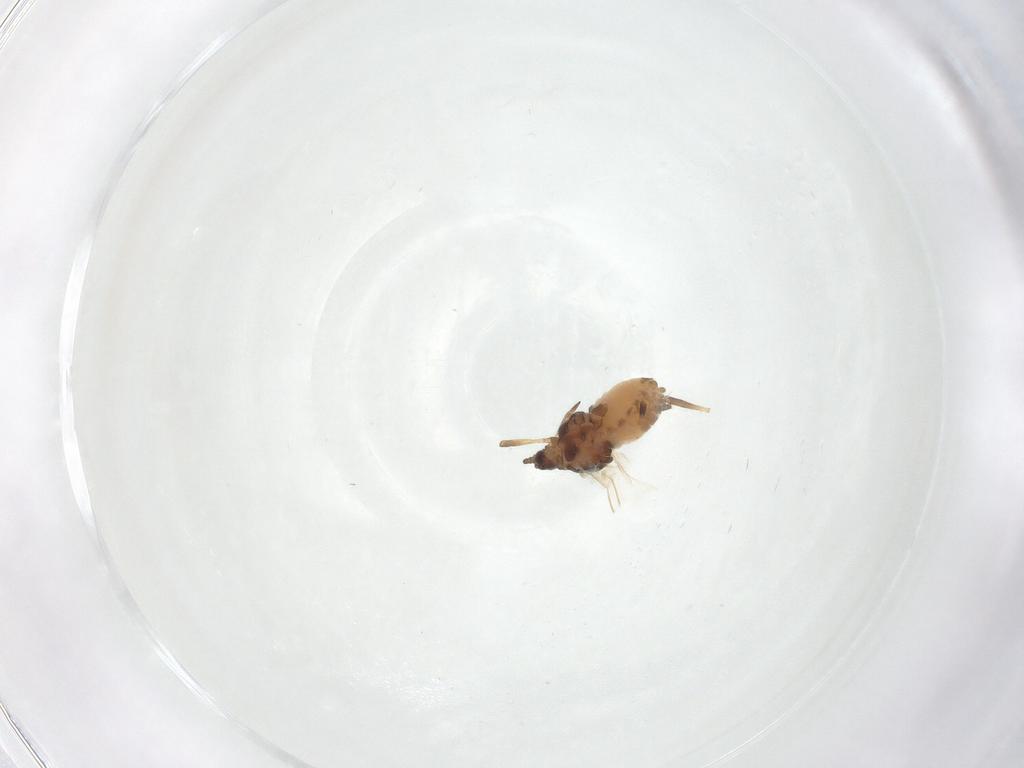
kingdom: Animalia
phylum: Arthropoda
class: Insecta
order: Hemiptera
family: Aphididae
